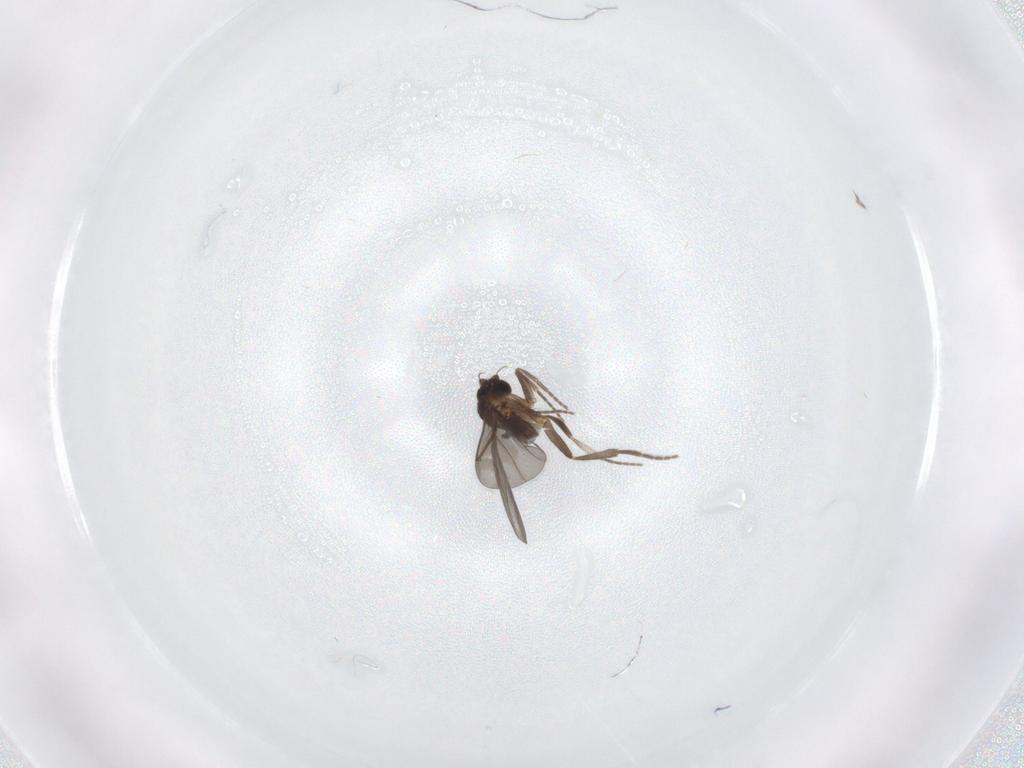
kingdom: Animalia
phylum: Arthropoda
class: Insecta
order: Diptera
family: Phoridae
